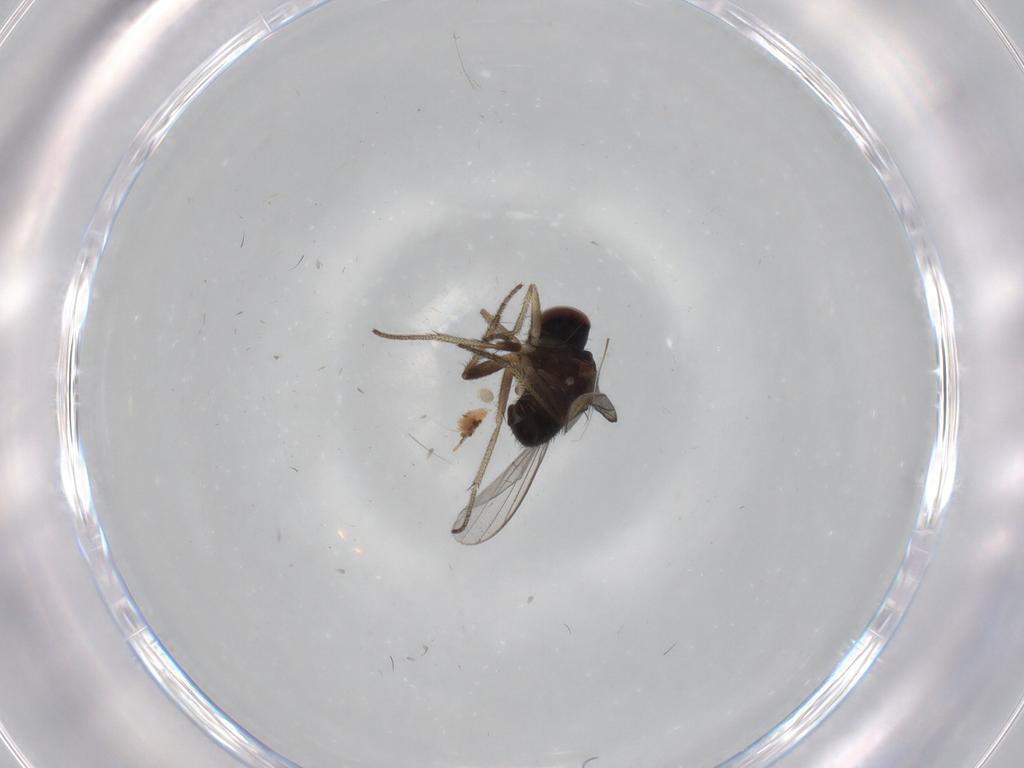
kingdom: Animalia
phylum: Arthropoda
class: Insecta
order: Diptera
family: Dolichopodidae
